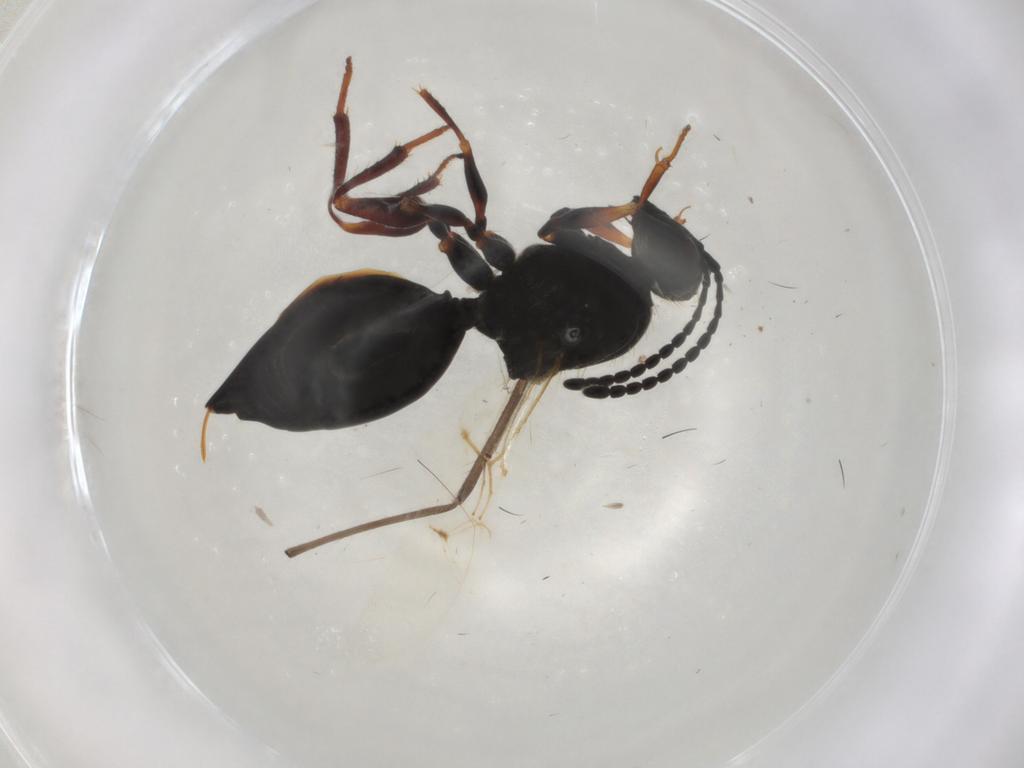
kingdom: Animalia
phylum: Arthropoda
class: Insecta
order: Hymenoptera
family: Figitidae
